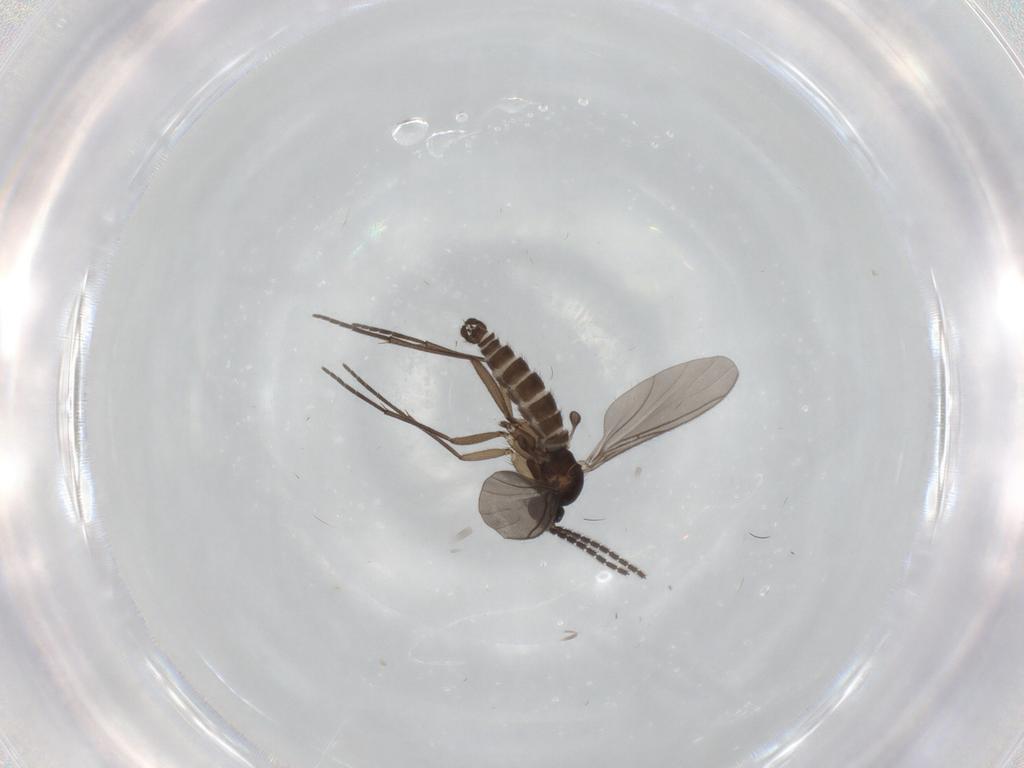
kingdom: Animalia
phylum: Arthropoda
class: Insecta
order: Diptera
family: Sciaridae
